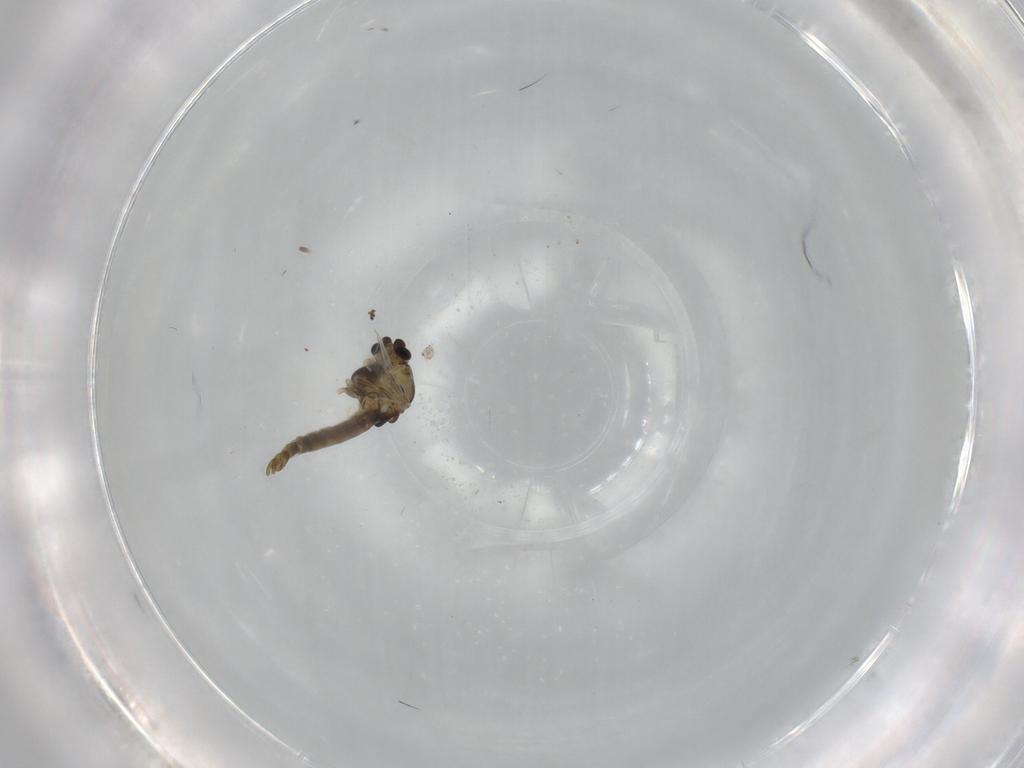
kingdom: Animalia
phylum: Arthropoda
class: Insecta
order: Diptera
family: Chironomidae
